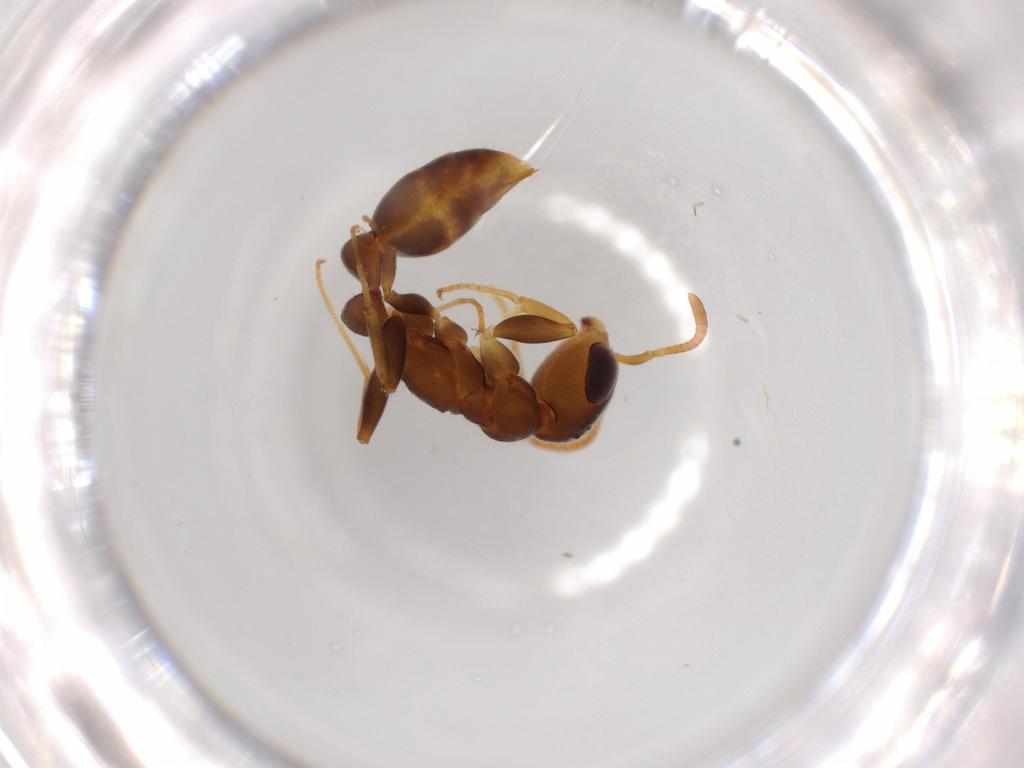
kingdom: Animalia
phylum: Arthropoda
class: Insecta
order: Hymenoptera
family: Formicidae
